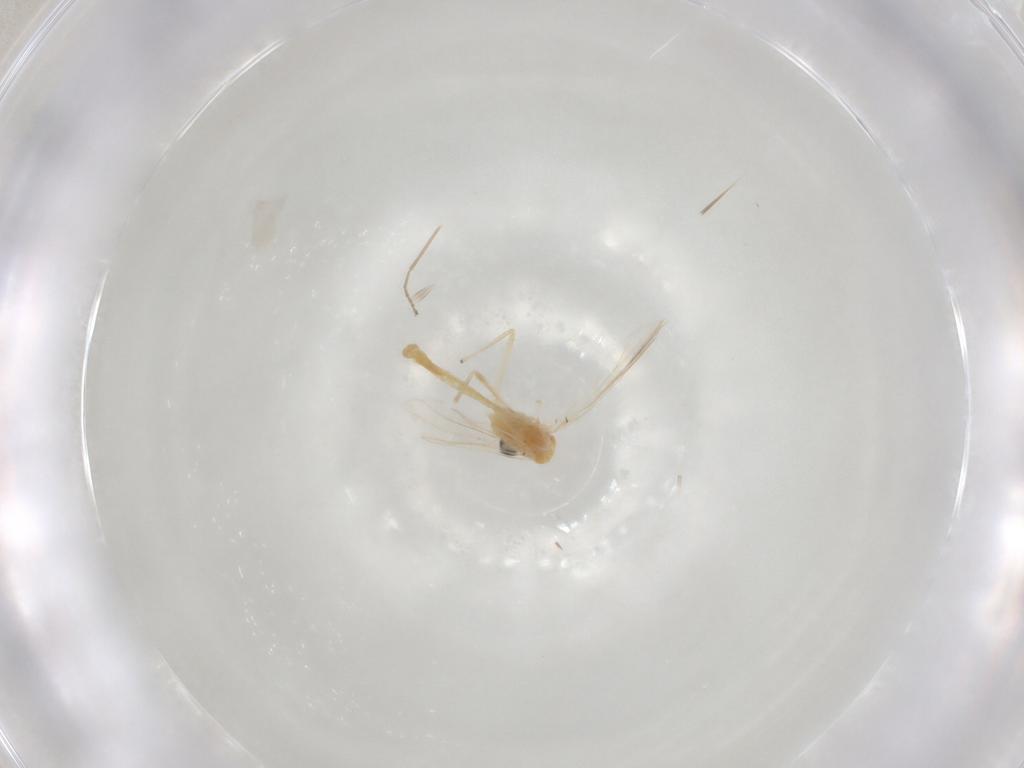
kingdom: Animalia
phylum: Arthropoda
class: Insecta
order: Diptera
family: Chironomidae
